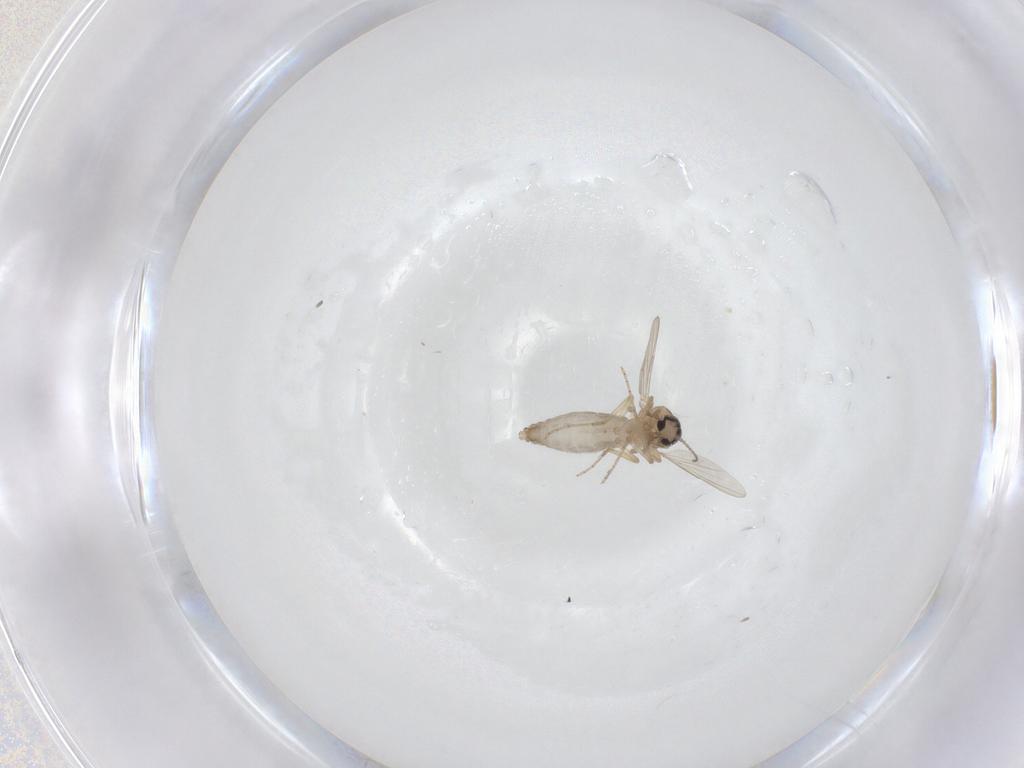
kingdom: Animalia
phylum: Arthropoda
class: Insecta
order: Diptera
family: Ceratopogonidae
